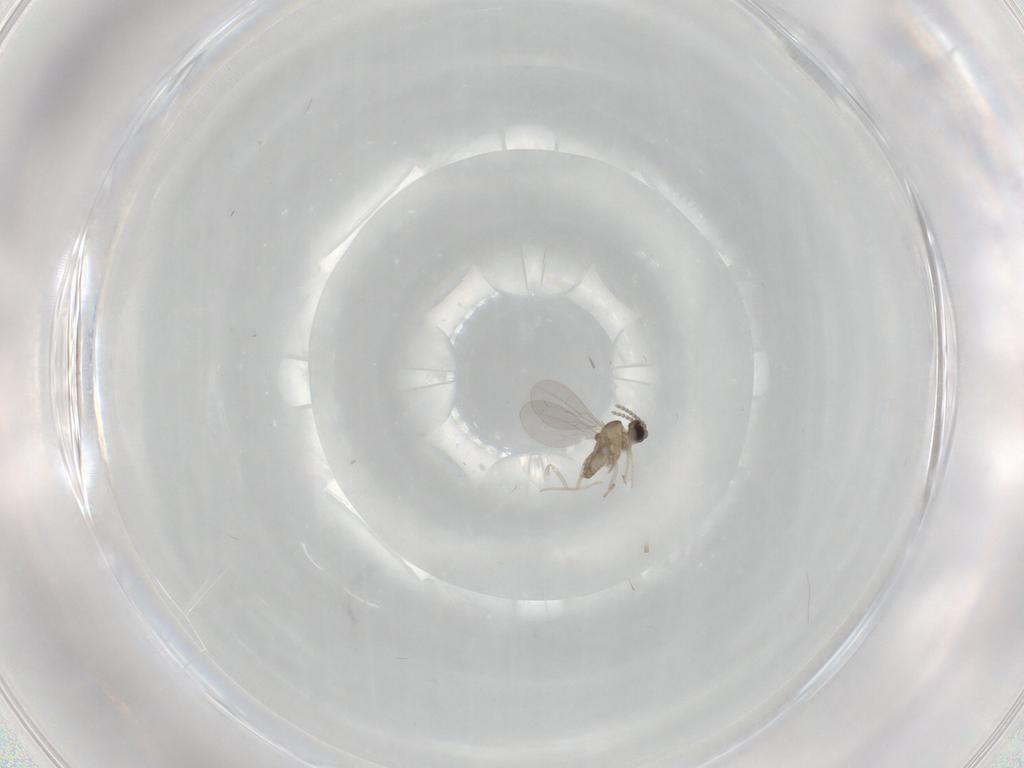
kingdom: Animalia
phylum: Arthropoda
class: Insecta
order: Diptera
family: Cecidomyiidae
